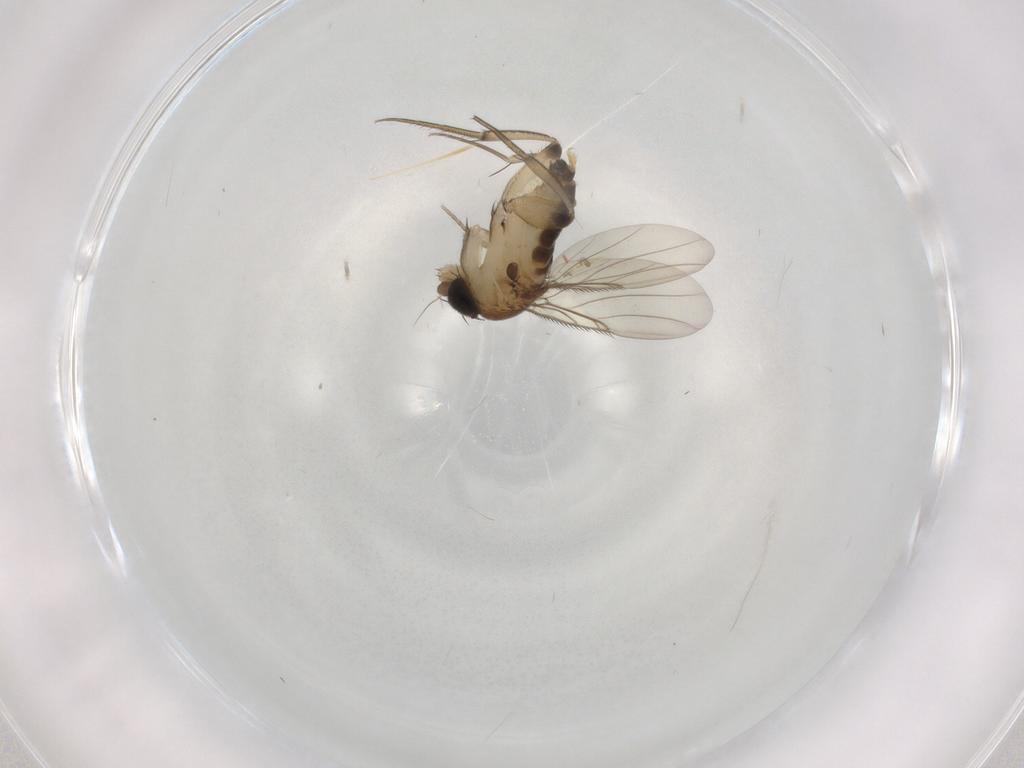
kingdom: Animalia
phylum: Arthropoda
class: Insecta
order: Diptera
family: Phoridae
